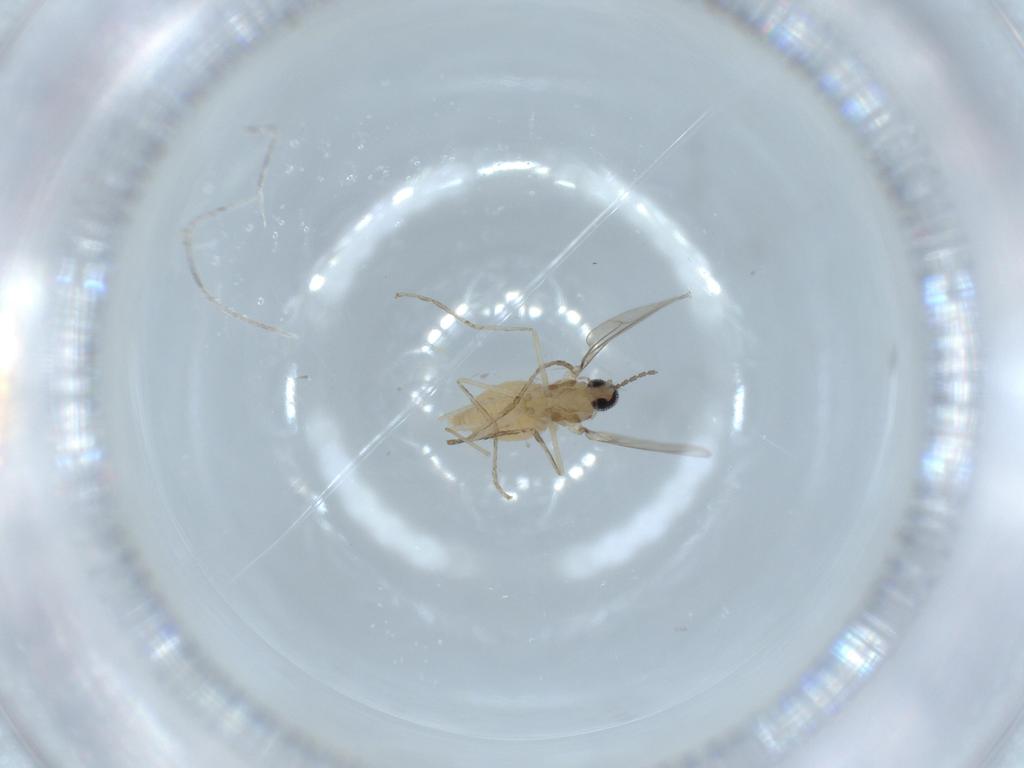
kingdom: Animalia
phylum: Arthropoda
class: Insecta
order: Diptera
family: Cecidomyiidae
